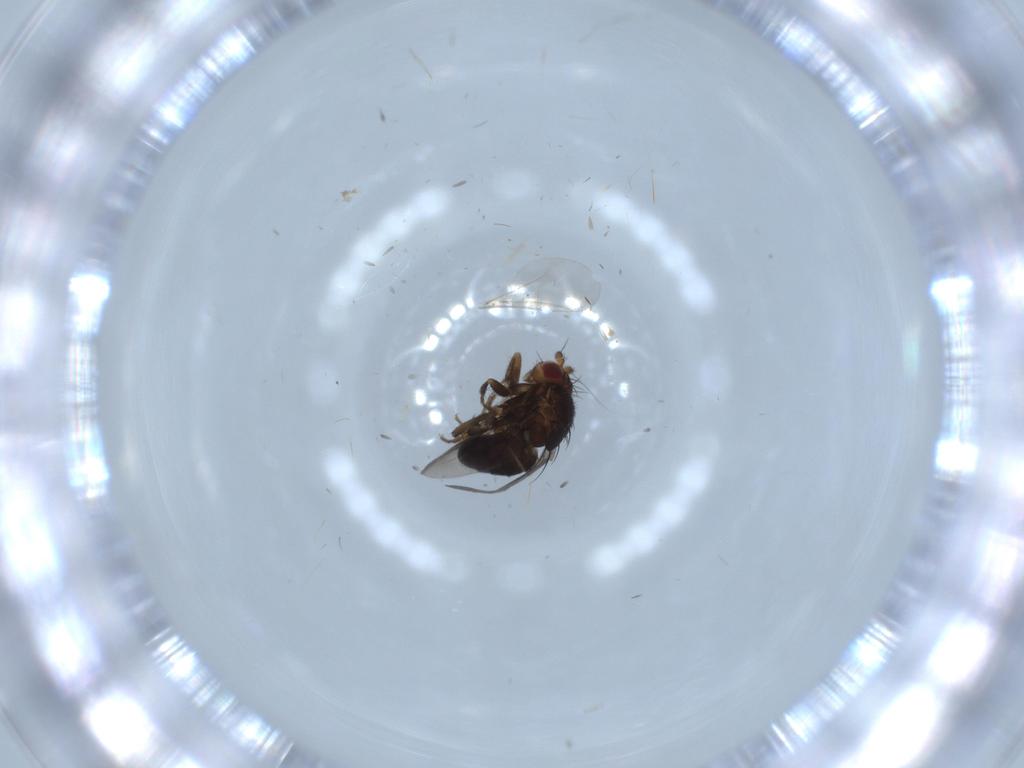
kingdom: Animalia
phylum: Arthropoda
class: Insecta
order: Diptera
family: Sphaeroceridae
